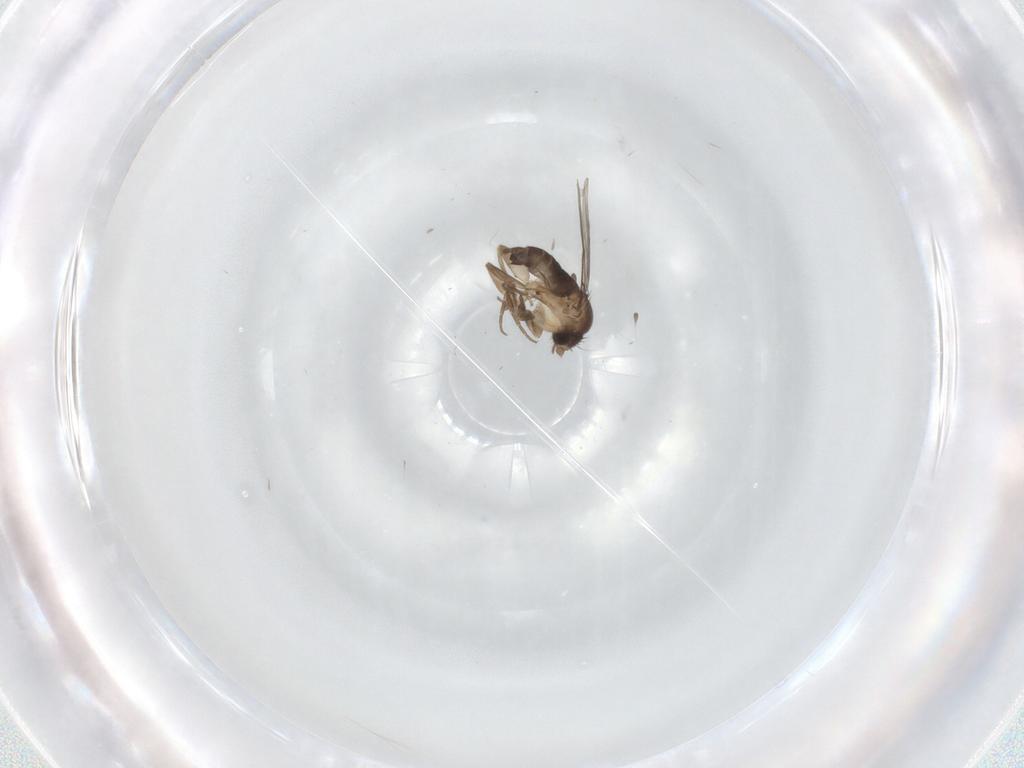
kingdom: Animalia
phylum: Arthropoda
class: Insecta
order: Diptera
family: Phoridae
